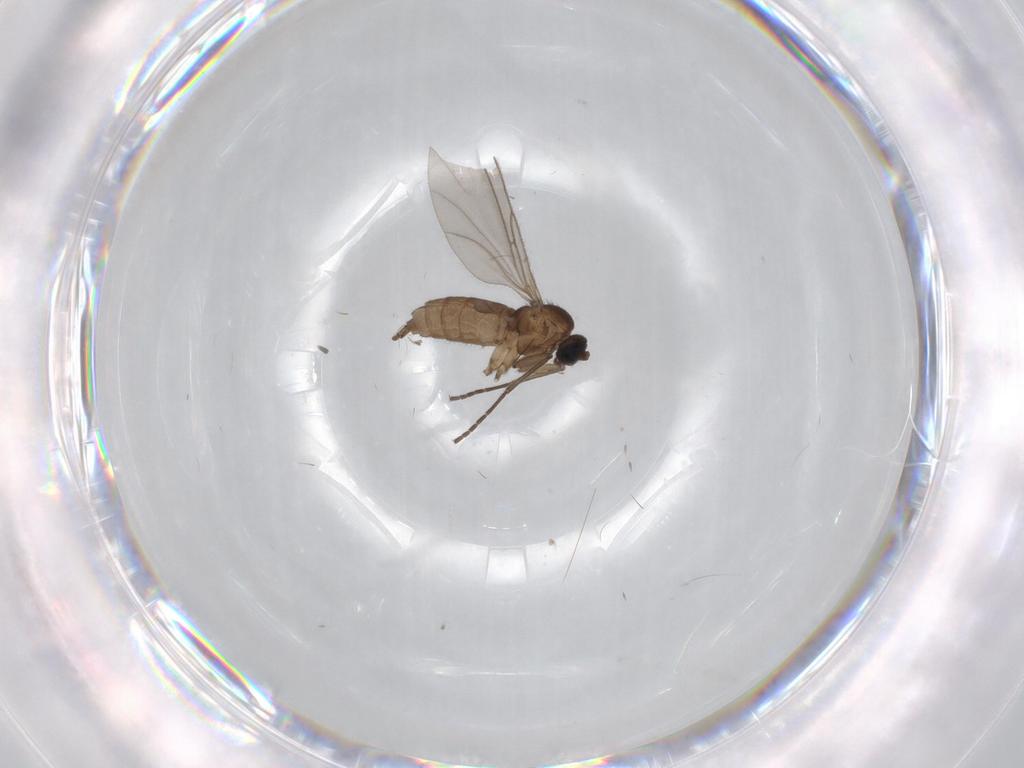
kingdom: Animalia
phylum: Arthropoda
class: Insecta
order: Diptera
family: Sciaridae
